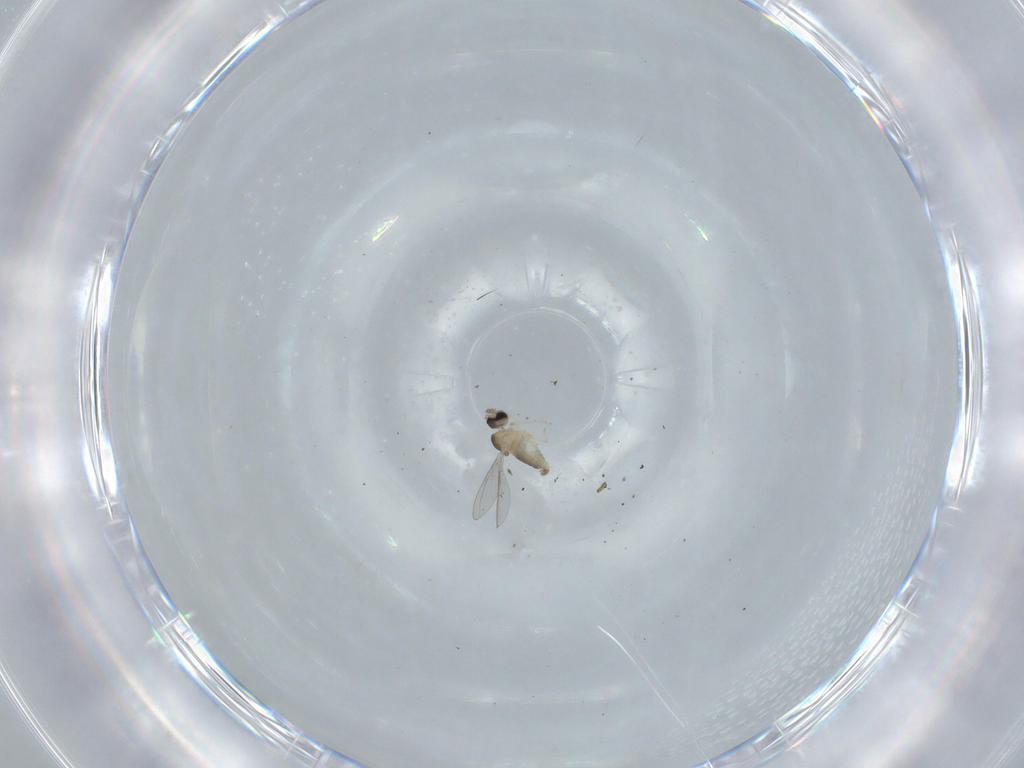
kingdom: Animalia
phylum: Arthropoda
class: Insecta
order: Diptera
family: Cecidomyiidae
